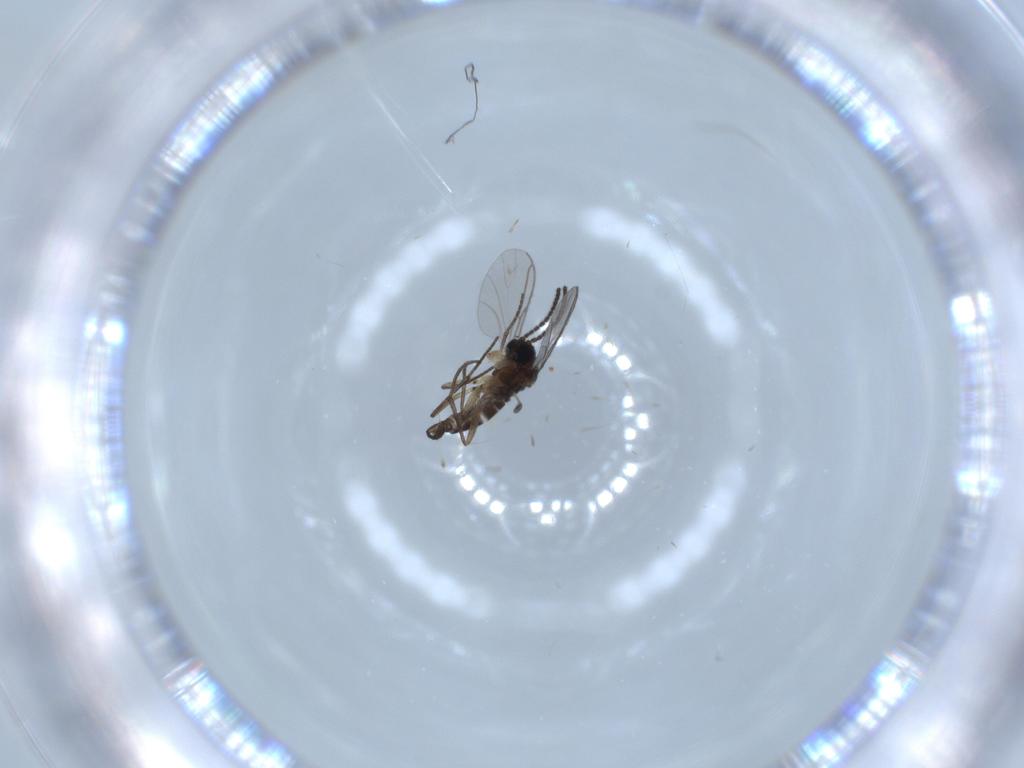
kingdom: Animalia
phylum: Arthropoda
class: Insecta
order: Diptera
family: Sciaridae
